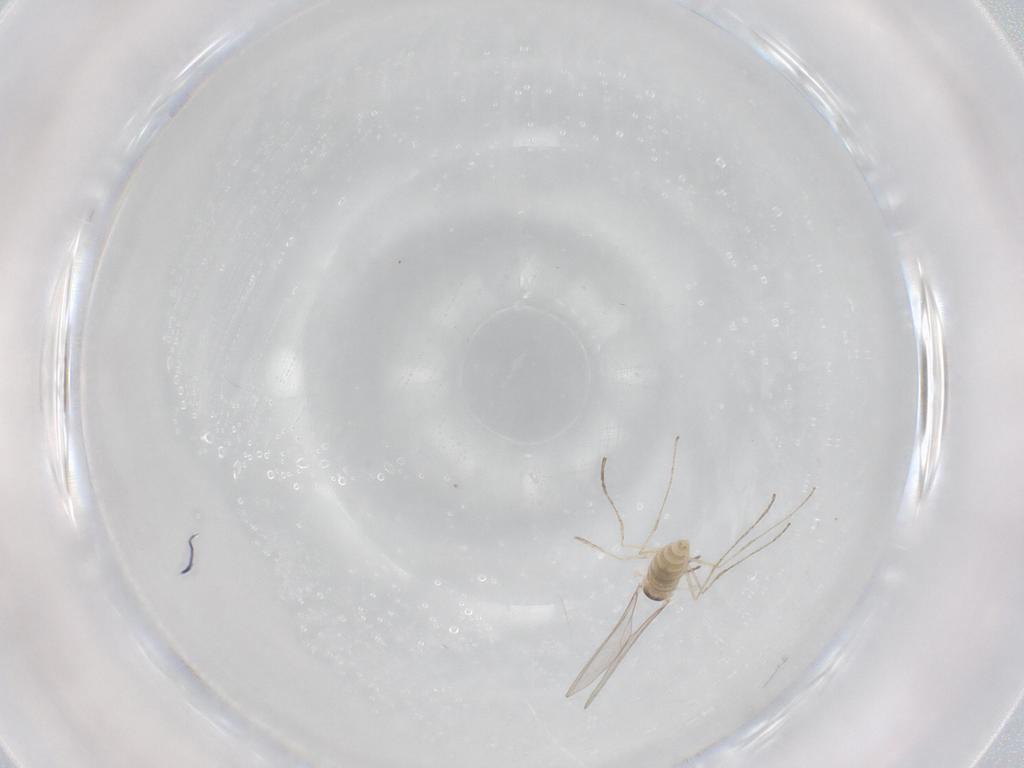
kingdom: Animalia
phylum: Arthropoda
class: Insecta
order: Diptera
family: Cecidomyiidae
